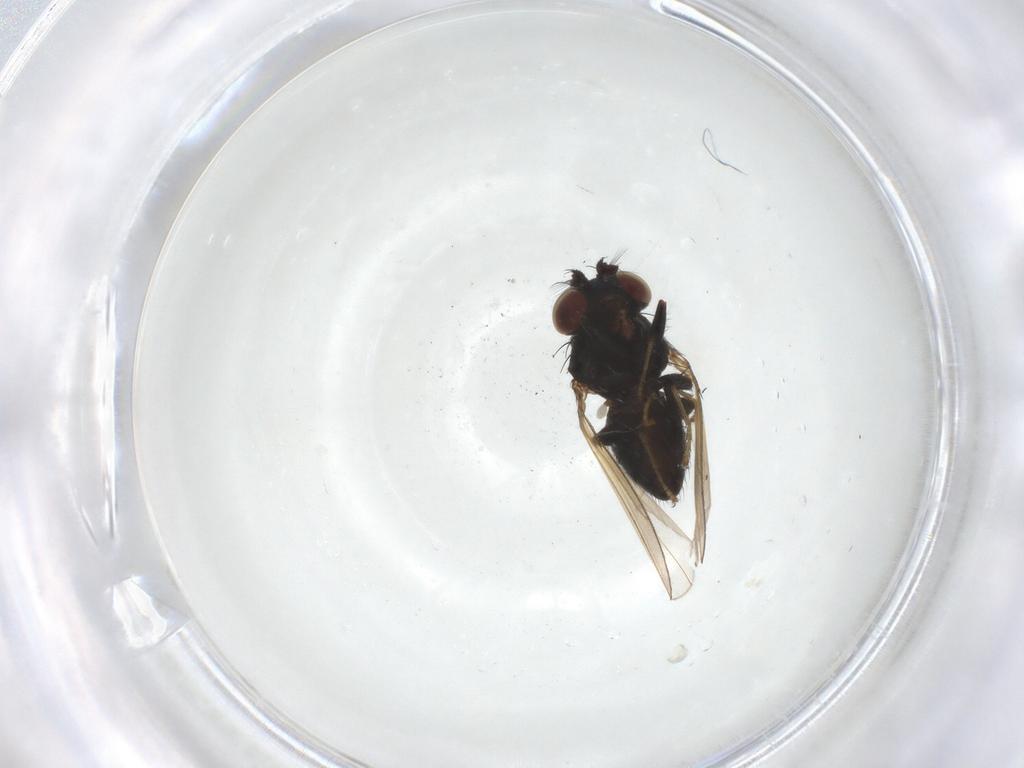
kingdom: Animalia
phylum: Arthropoda
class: Insecta
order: Diptera
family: Ephydridae
